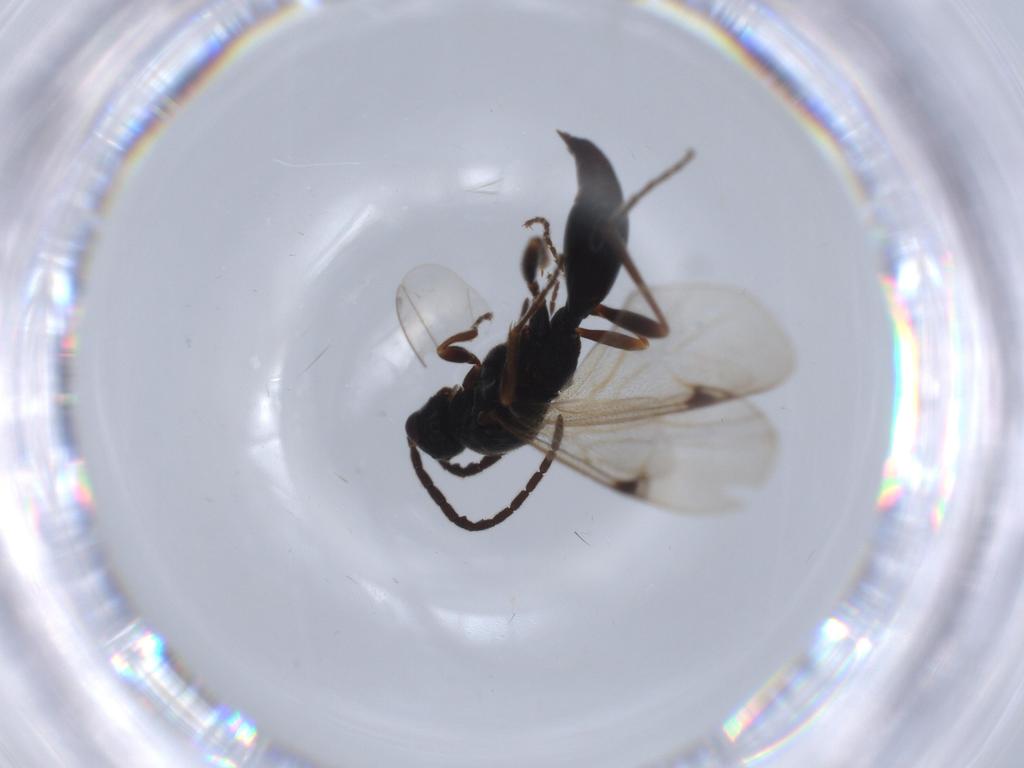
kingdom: Animalia
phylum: Arthropoda
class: Insecta
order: Hymenoptera
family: Proctotrupidae
